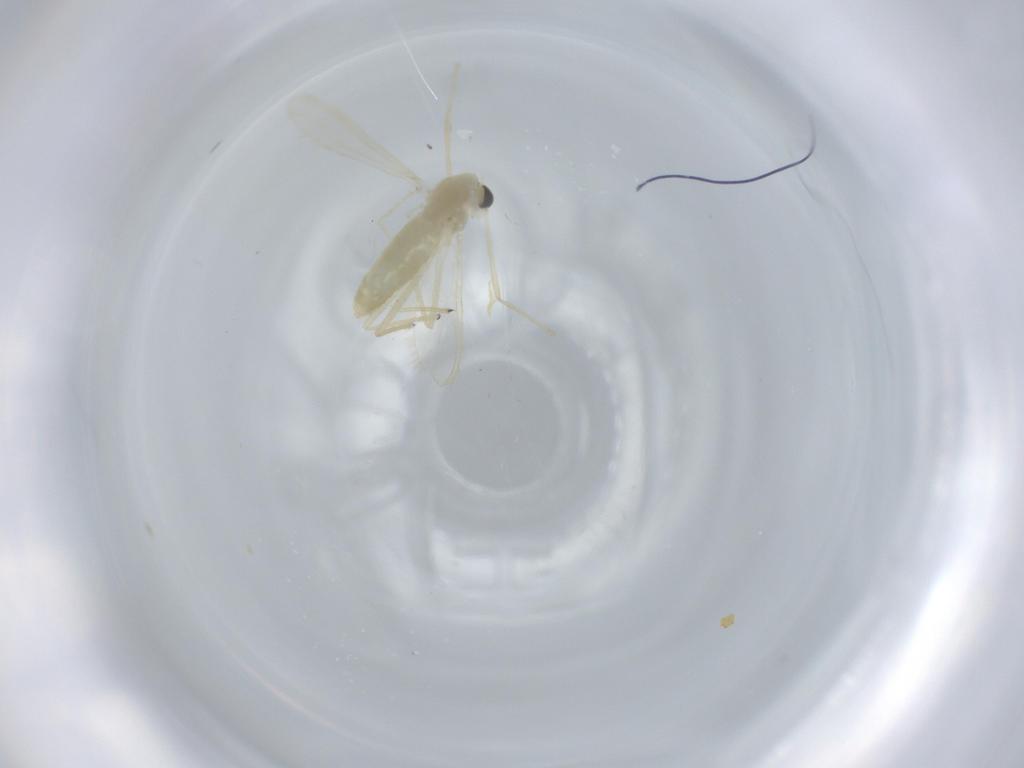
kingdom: Animalia
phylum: Arthropoda
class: Insecta
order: Diptera
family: Chironomidae
